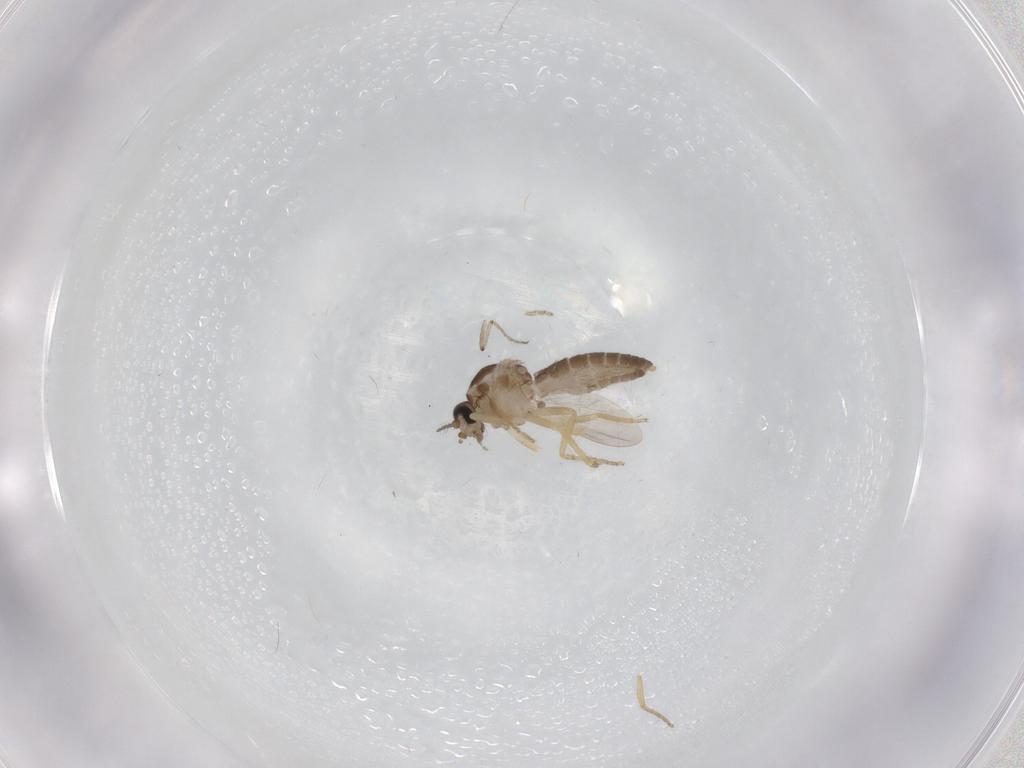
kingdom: Animalia
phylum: Arthropoda
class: Insecta
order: Diptera
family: Ceratopogonidae
